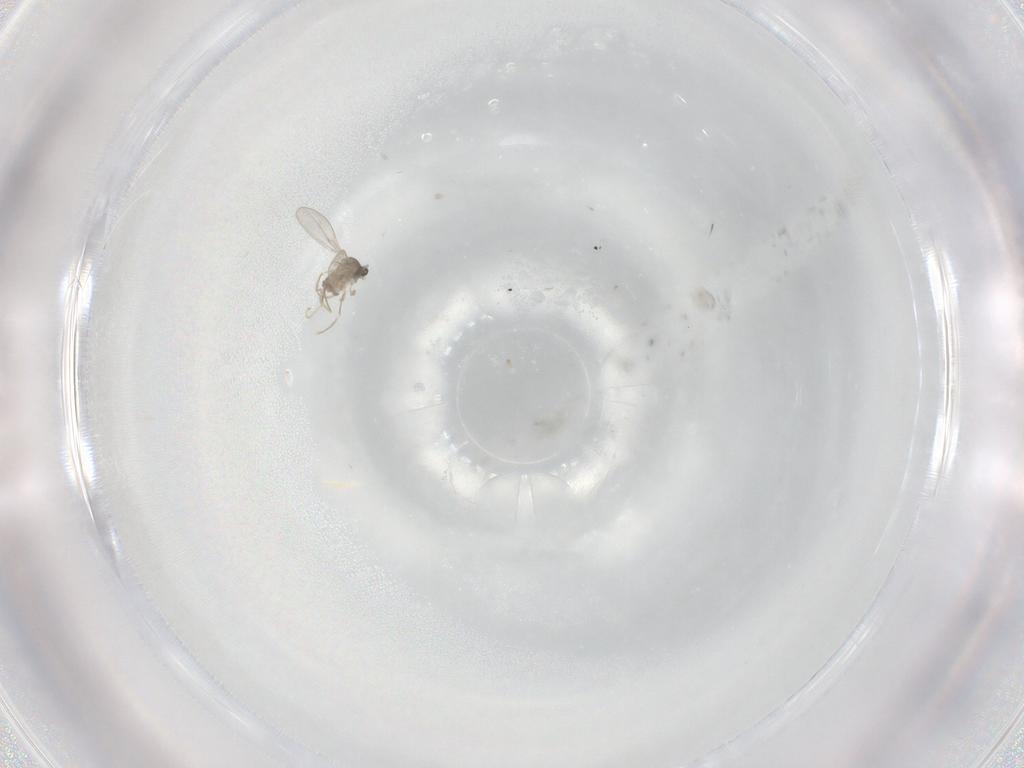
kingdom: Animalia
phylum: Arthropoda
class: Insecta
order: Diptera
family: Cecidomyiidae
